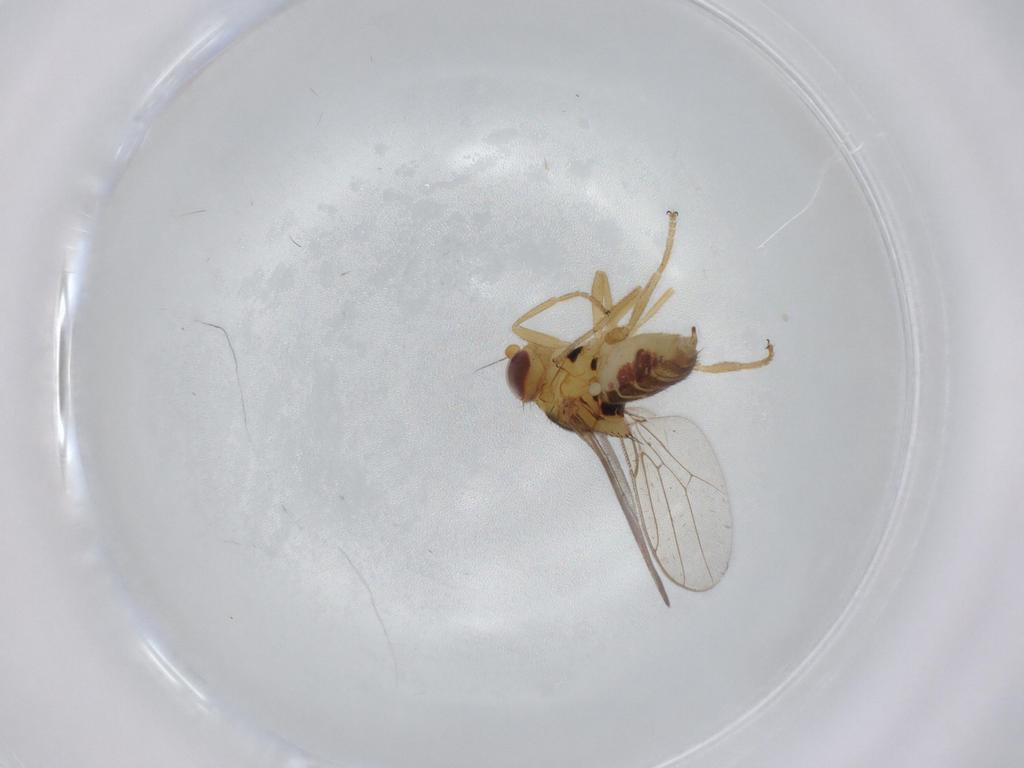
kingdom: Animalia
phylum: Arthropoda
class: Insecta
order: Diptera
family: Chloropidae
